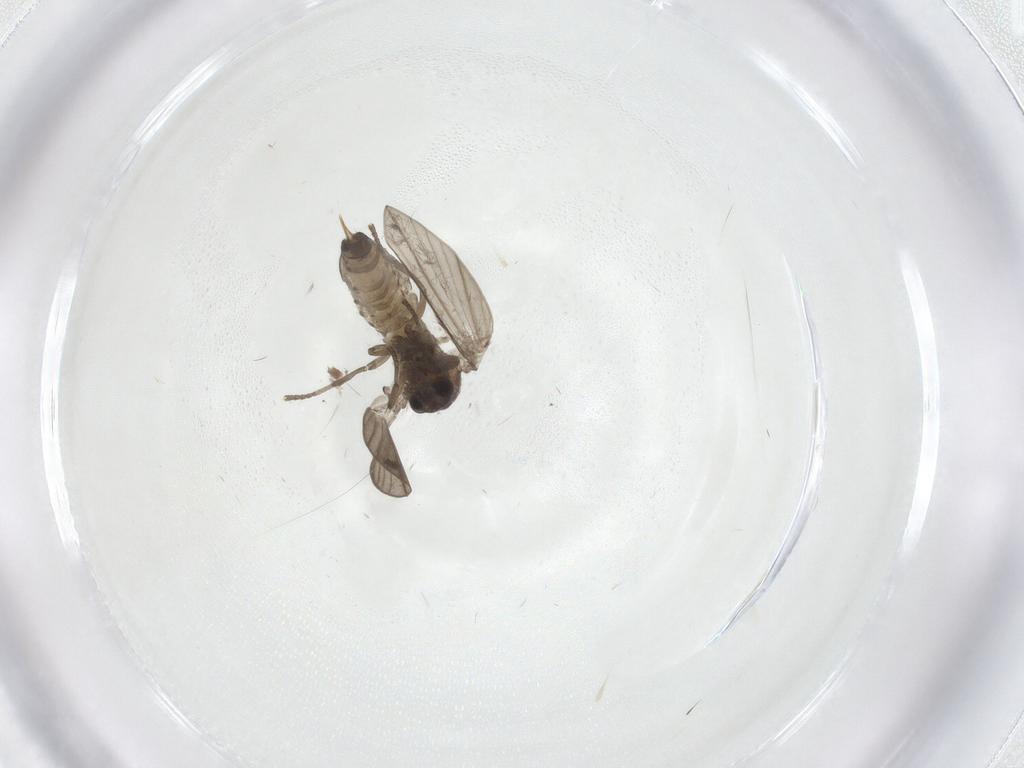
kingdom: Animalia
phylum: Arthropoda
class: Insecta
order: Diptera
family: Psychodidae
